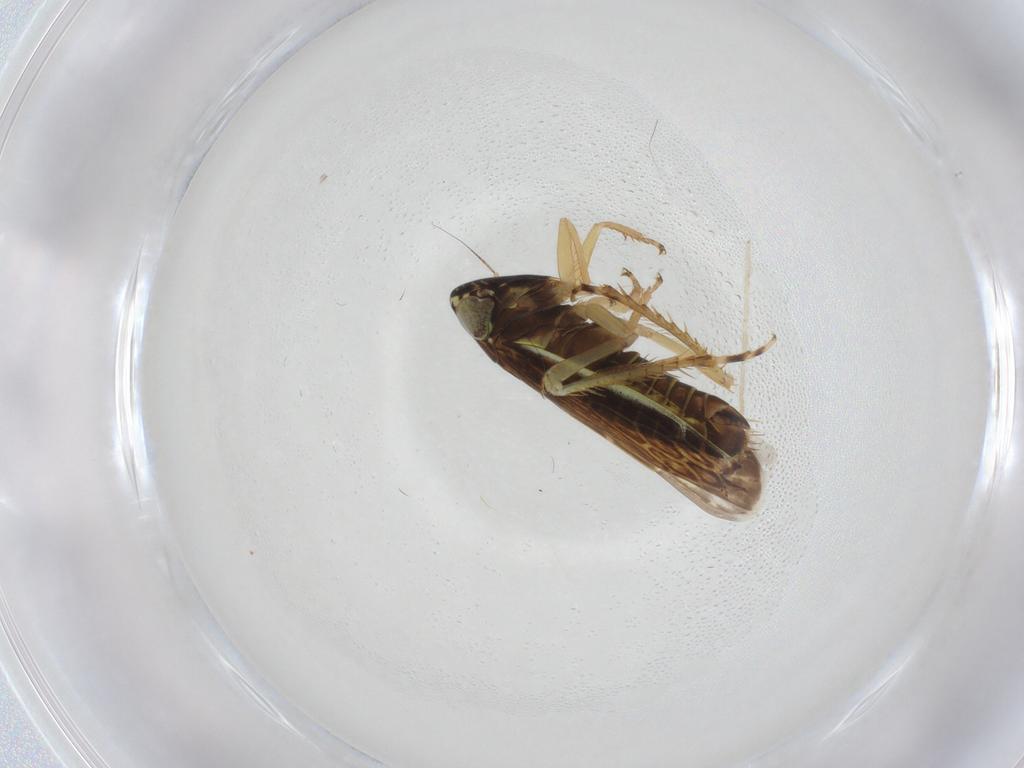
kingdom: Animalia
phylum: Arthropoda
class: Insecta
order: Hemiptera
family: Cicadellidae
